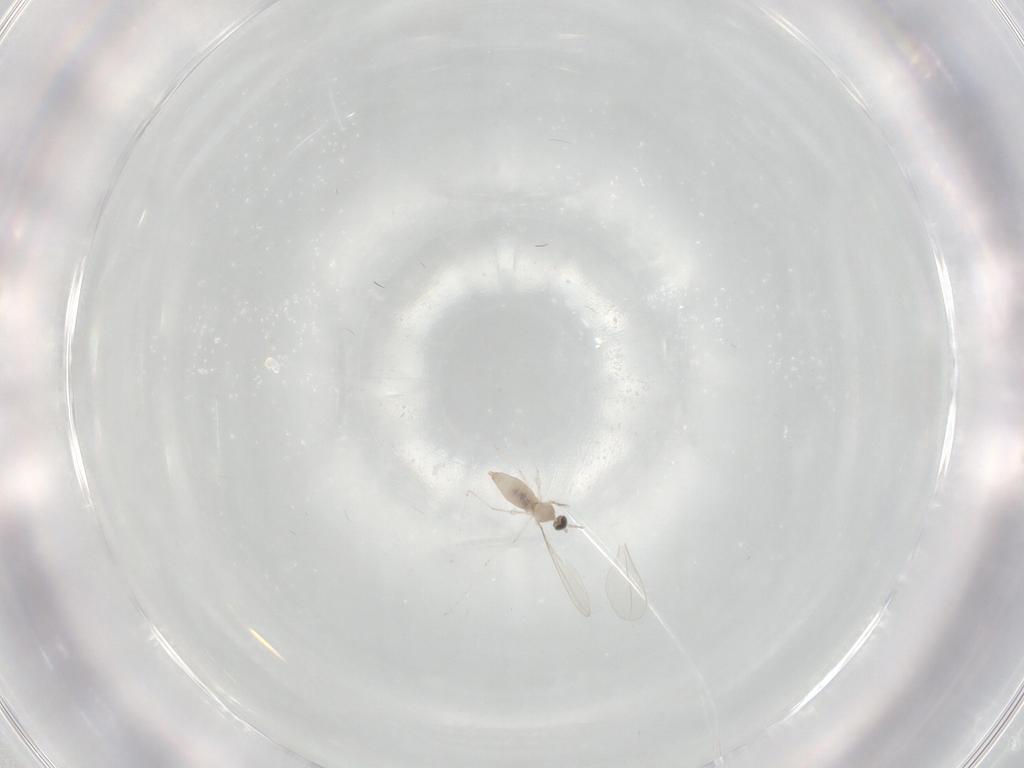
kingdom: Animalia
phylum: Arthropoda
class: Insecta
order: Diptera
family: Cecidomyiidae
